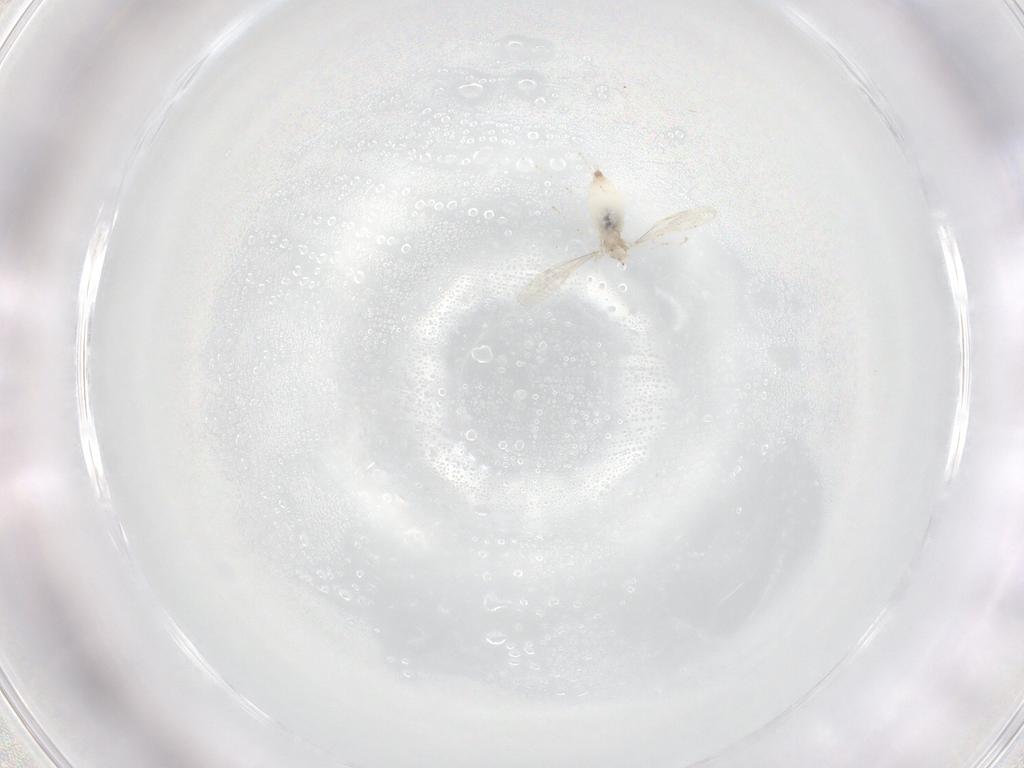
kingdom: Animalia
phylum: Arthropoda
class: Insecta
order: Diptera
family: Cecidomyiidae
